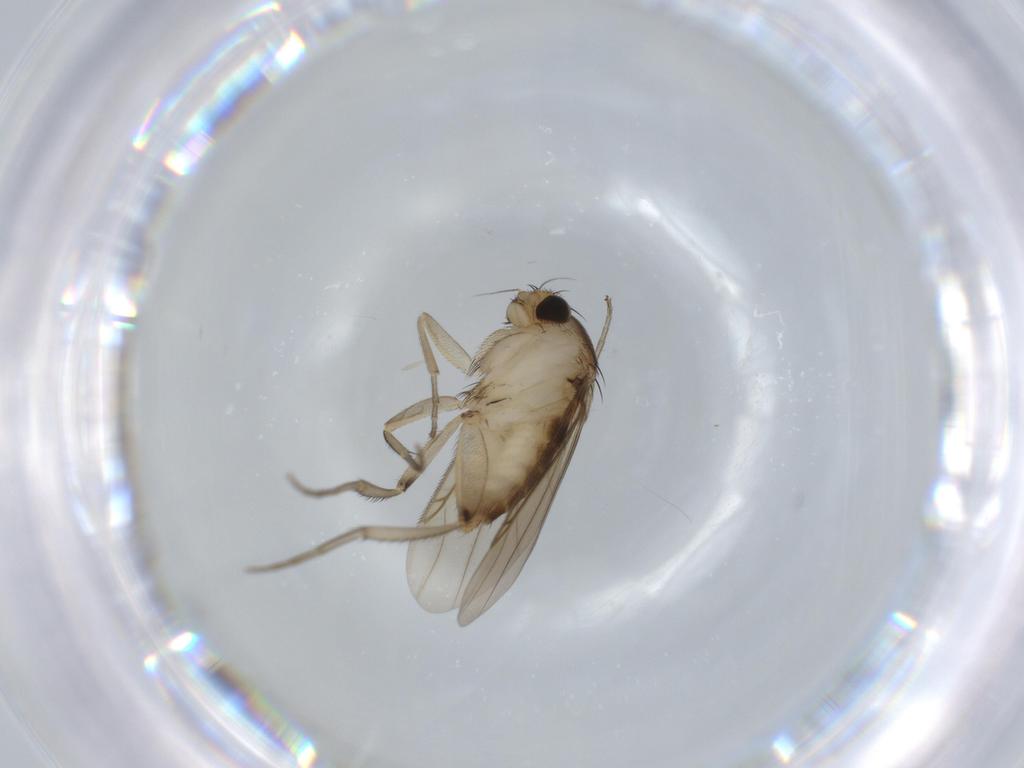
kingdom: Animalia
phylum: Arthropoda
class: Insecta
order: Diptera
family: Phoridae
